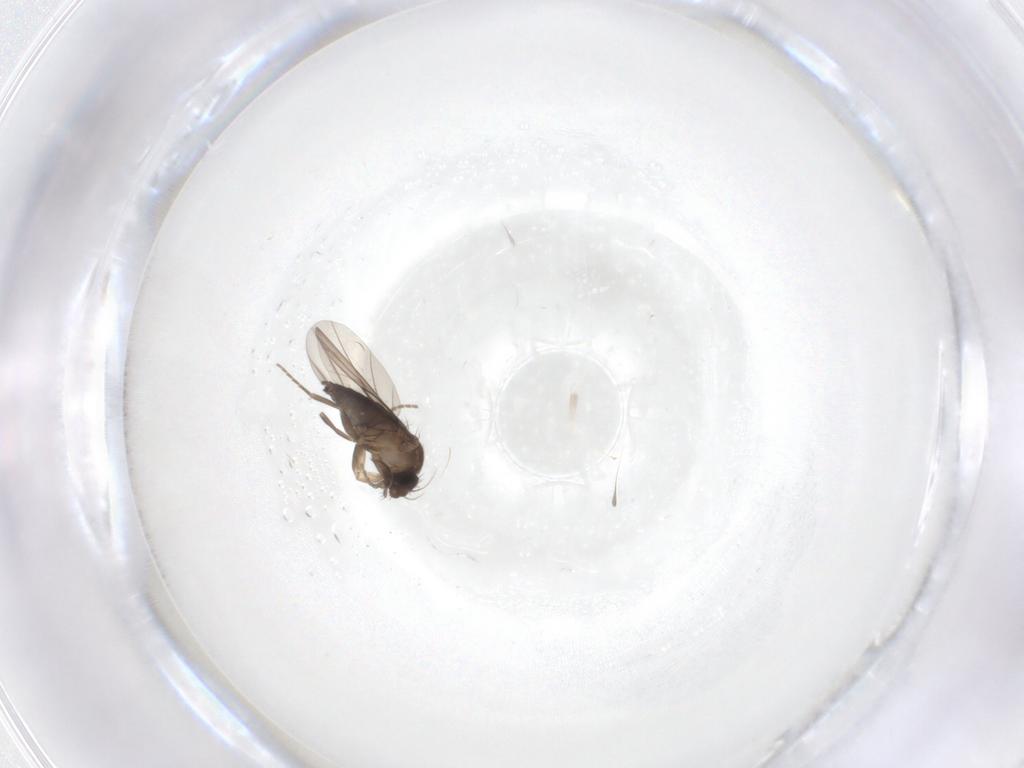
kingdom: Animalia
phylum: Arthropoda
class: Insecta
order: Diptera
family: Phoridae
